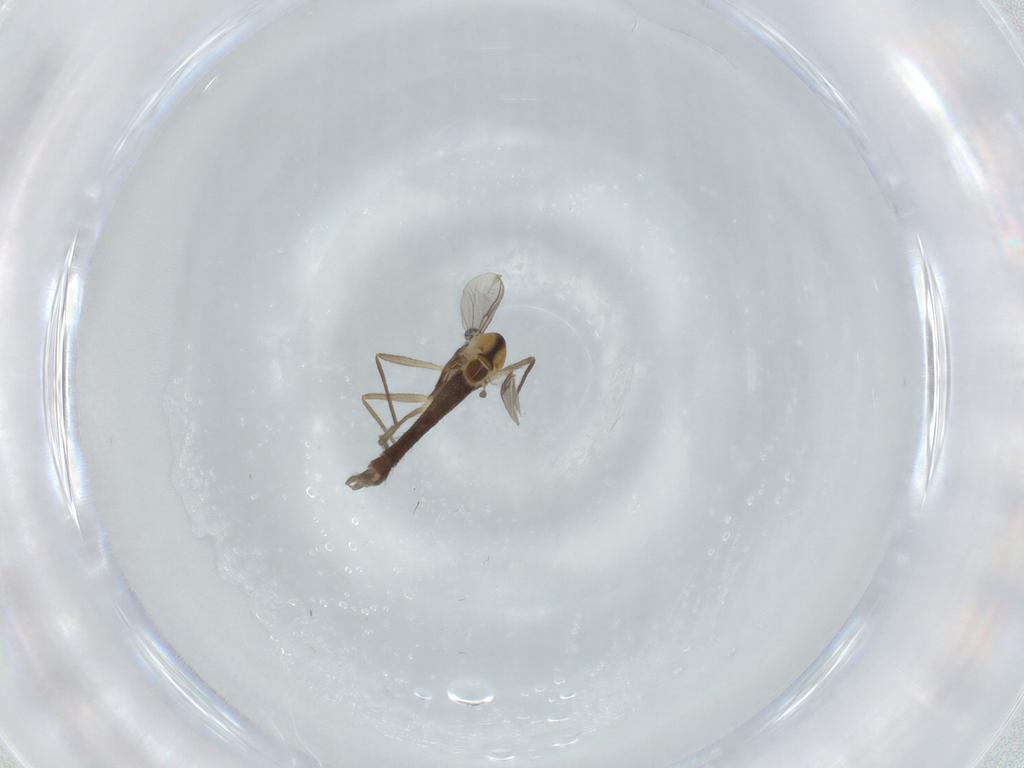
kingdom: Animalia
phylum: Arthropoda
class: Insecta
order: Diptera
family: Chironomidae
